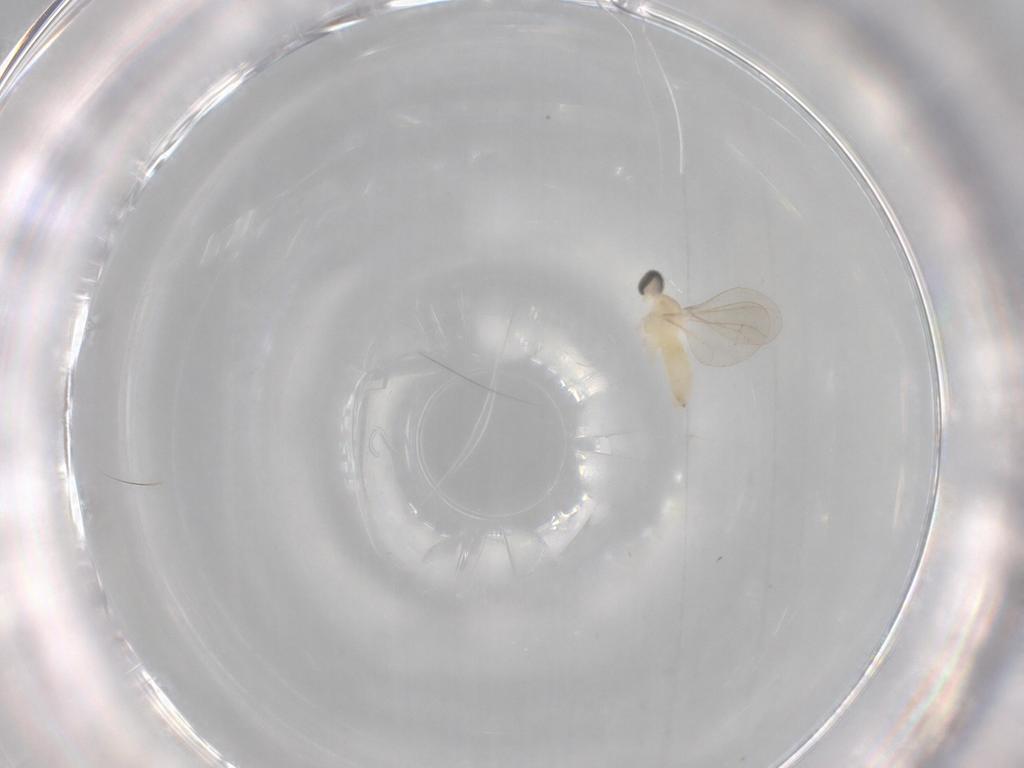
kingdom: Animalia
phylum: Arthropoda
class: Insecta
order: Diptera
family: Cecidomyiidae
